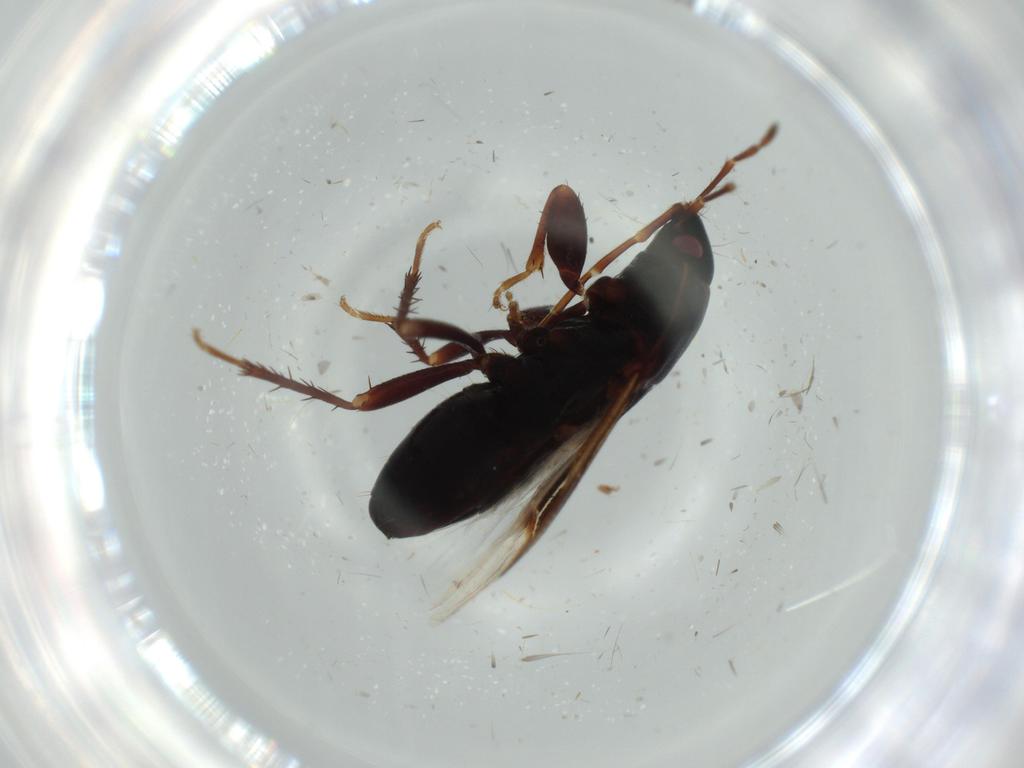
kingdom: Animalia
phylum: Arthropoda
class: Insecta
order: Hemiptera
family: Rhyparochromidae
